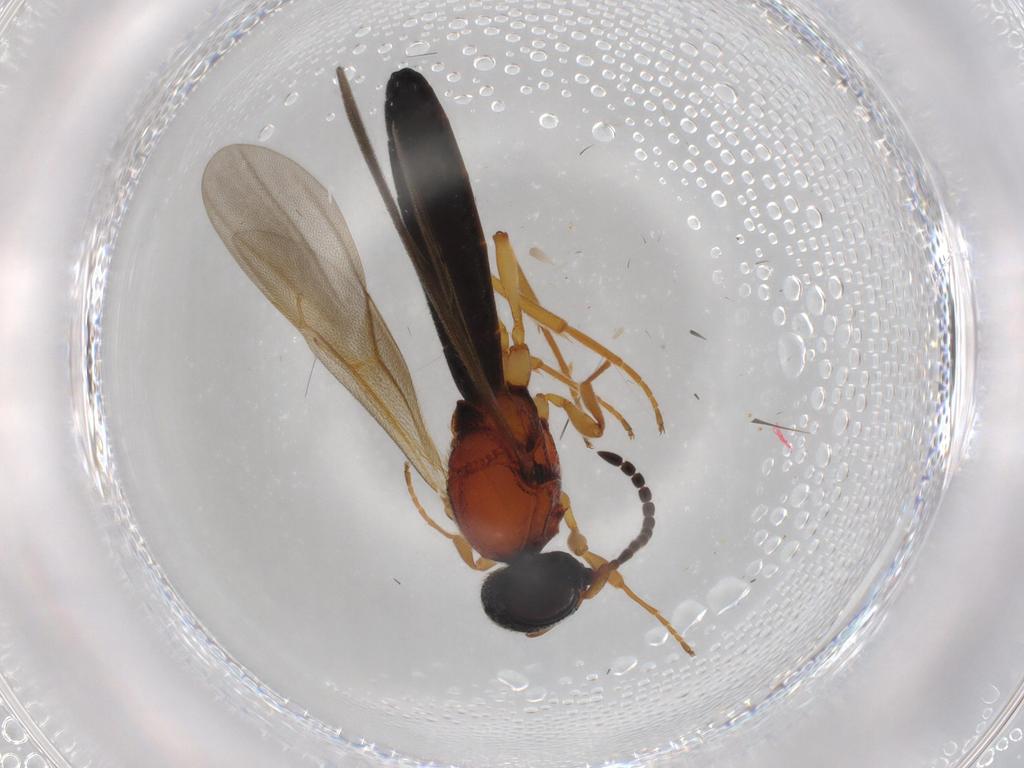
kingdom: Animalia
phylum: Arthropoda
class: Insecta
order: Hymenoptera
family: Scelionidae
